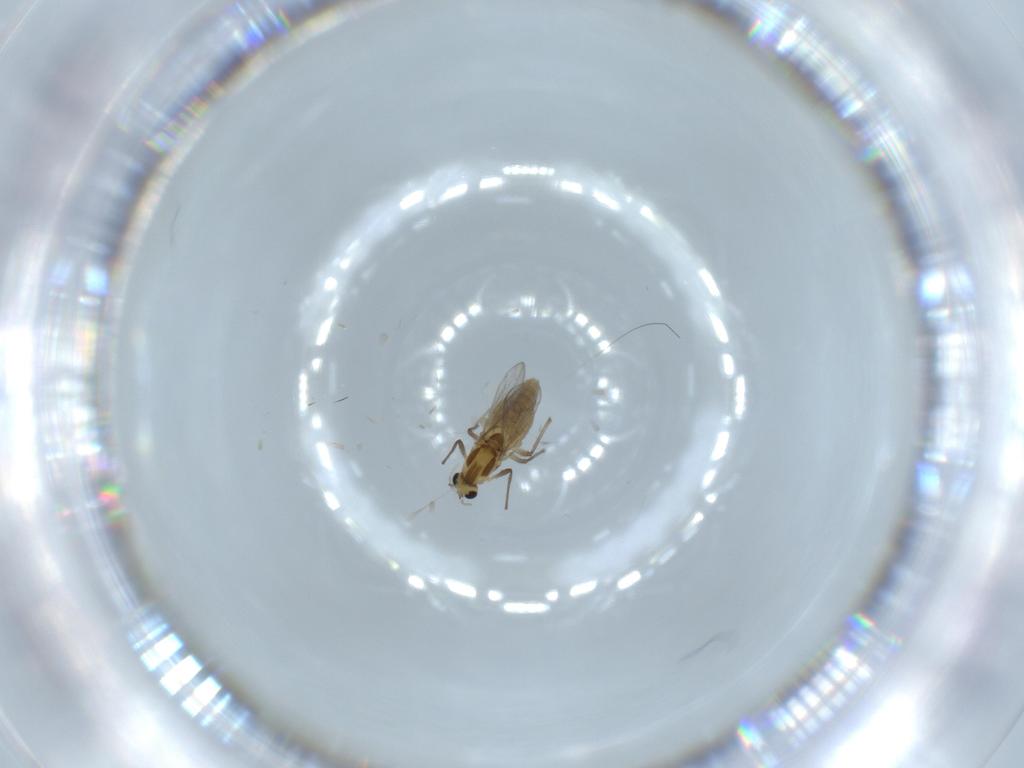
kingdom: Animalia
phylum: Arthropoda
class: Insecta
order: Diptera
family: Chironomidae
